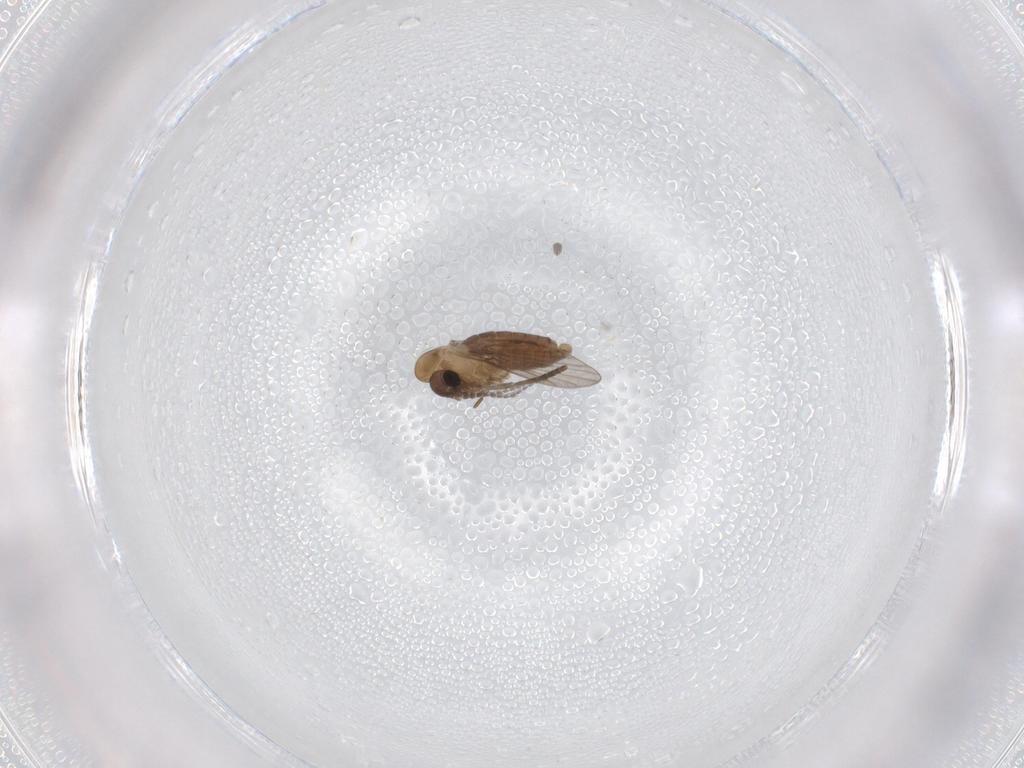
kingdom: Animalia
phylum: Arthropoda
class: Insecta
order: Diptera
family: Psychodidae
